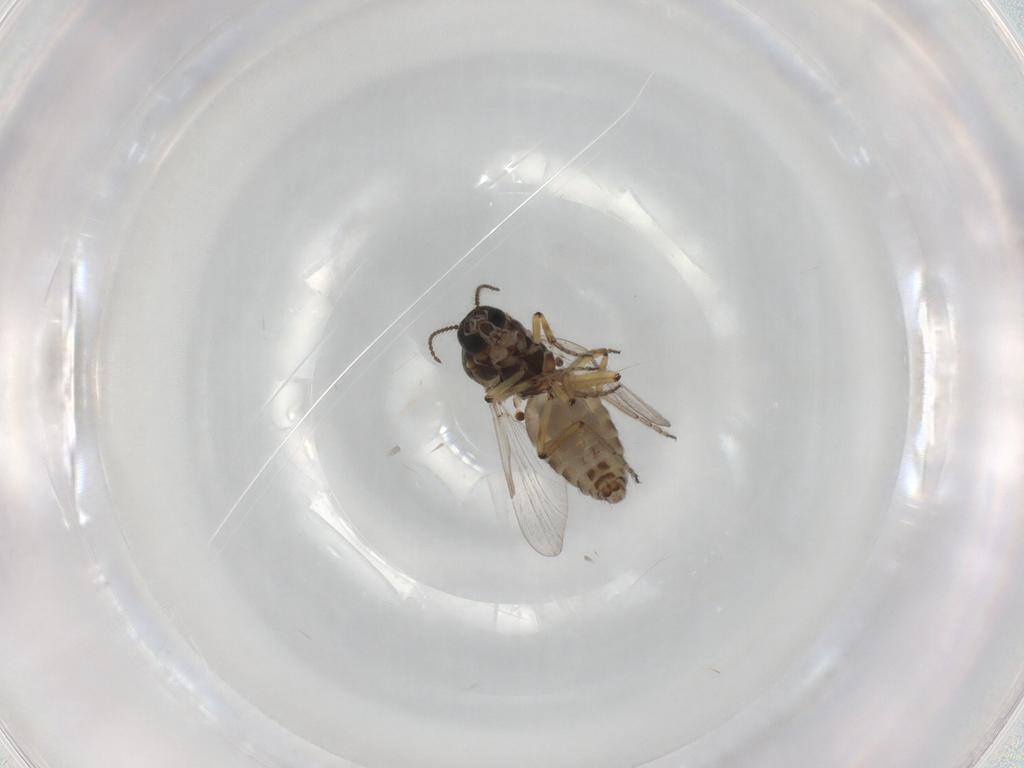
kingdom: Animalia
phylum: Arthropoda
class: Insecta
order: Diptera
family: Ceratopogonidae
